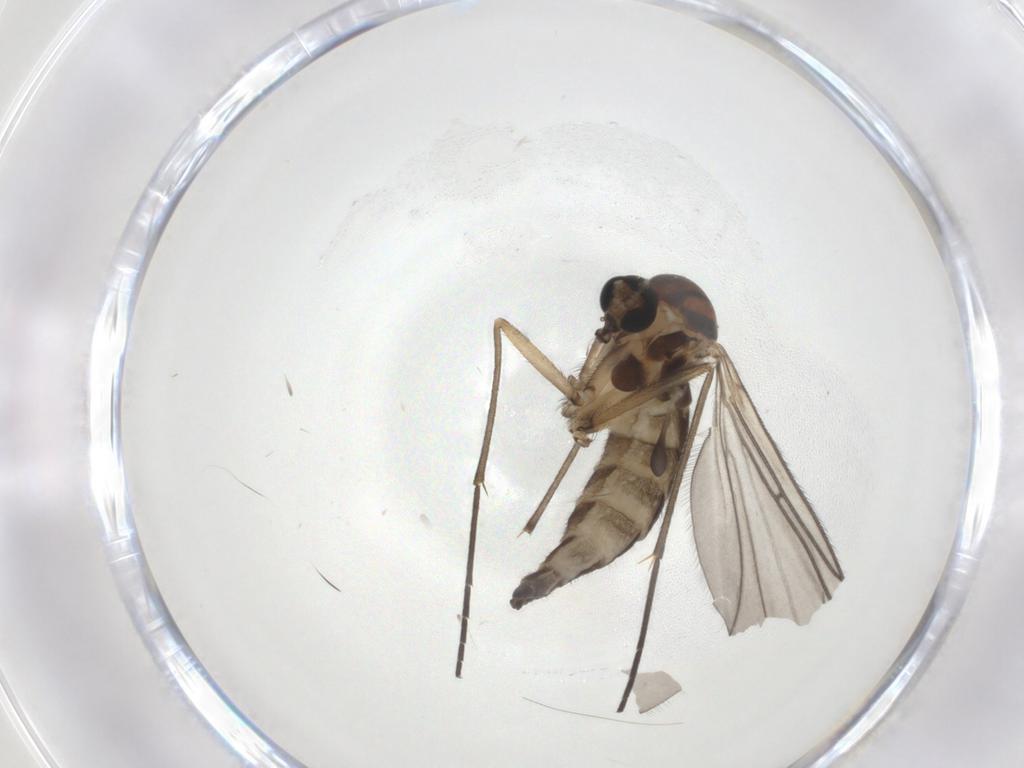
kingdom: Animalia
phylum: Arthropoda
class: Insecta
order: Diptera
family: Sciaridae
